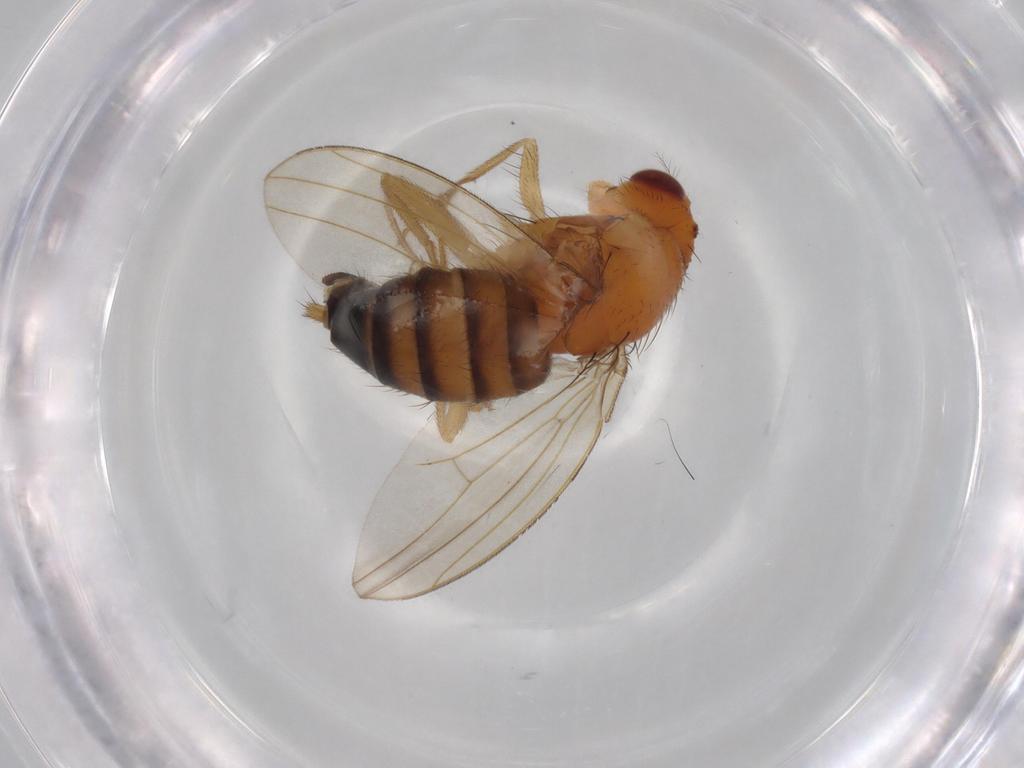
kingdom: Animalia
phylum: Arthropoda
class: Insecta
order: Diptera
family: Drosophilidae
